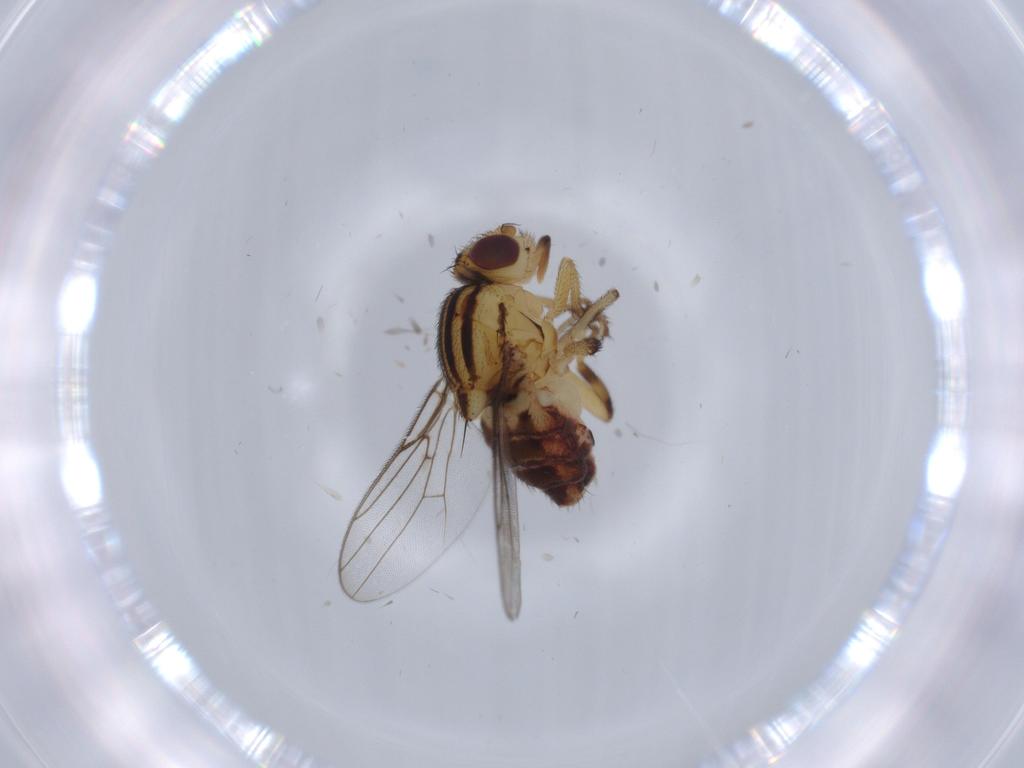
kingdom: Animalia
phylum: Arthropoda
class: Insecta
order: Diptera
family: Chloropidae
